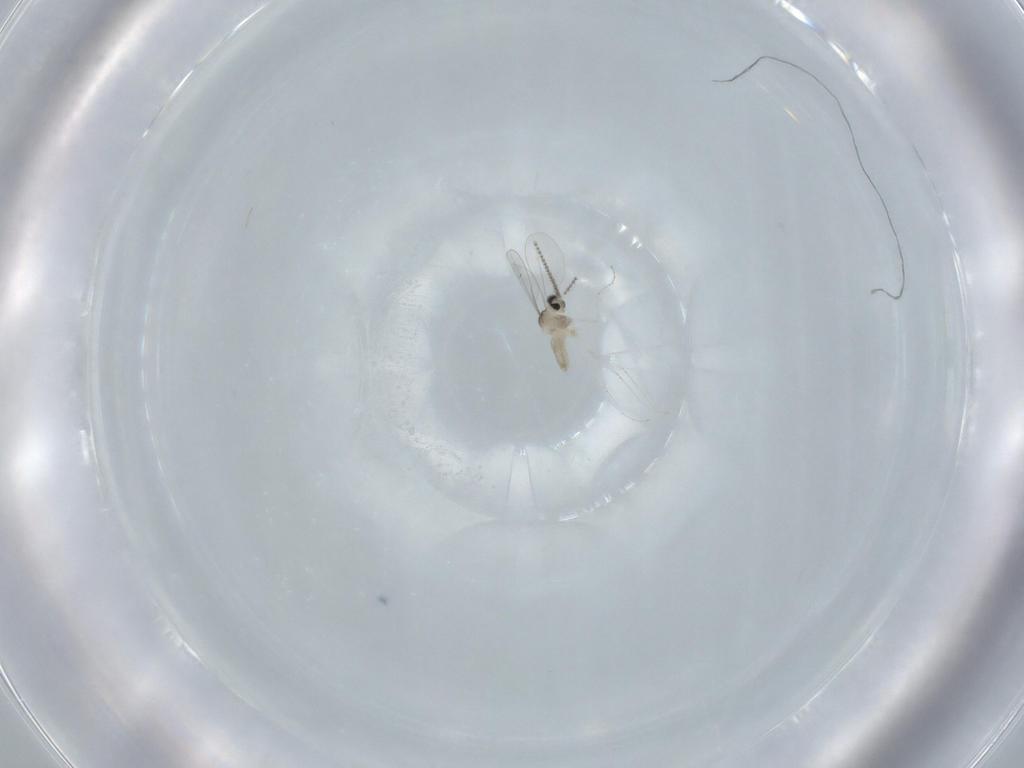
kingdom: Animalia
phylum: Arthropoda
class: Insecta
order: Diptera
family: Cecidomyiidae
